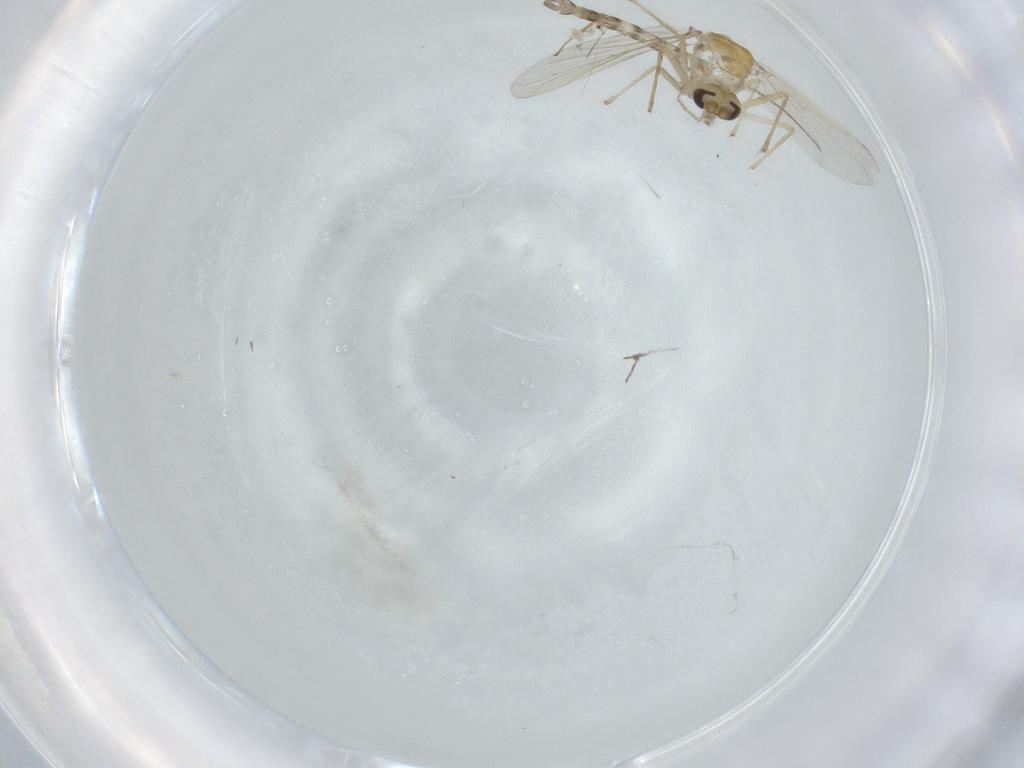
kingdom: Animalia
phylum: Arthropoda
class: Insecta
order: Diptera
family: Chironomidae
